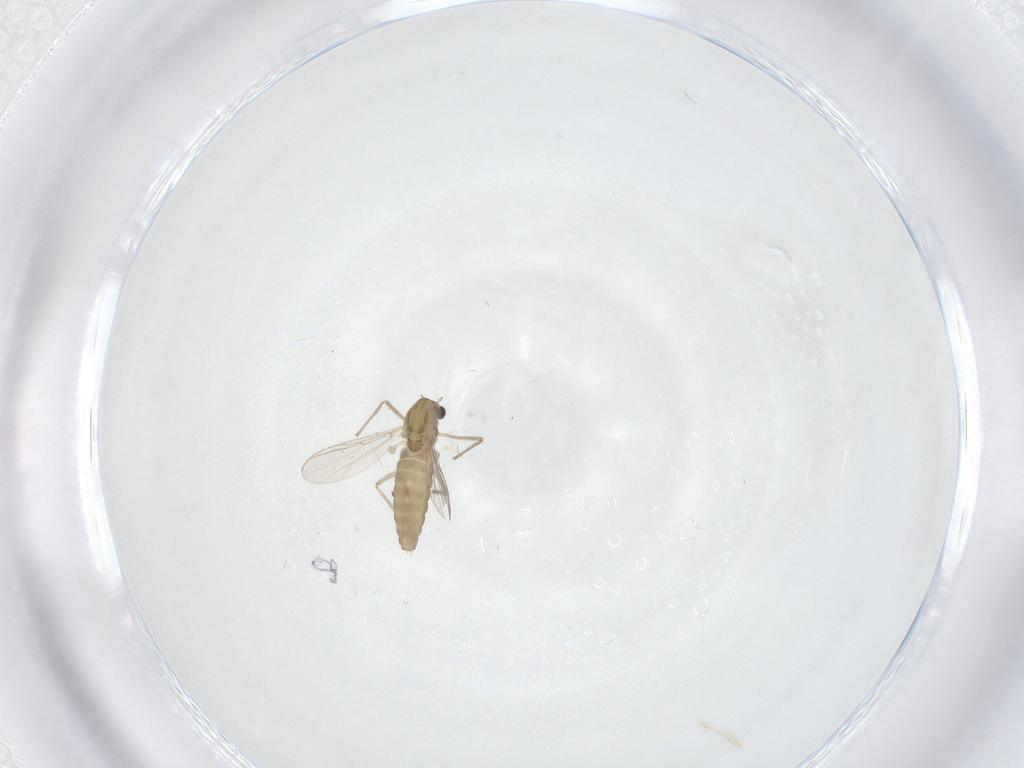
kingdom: Animalia
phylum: Arthropoda
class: Insecta
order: Diptera
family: Chironomidae
